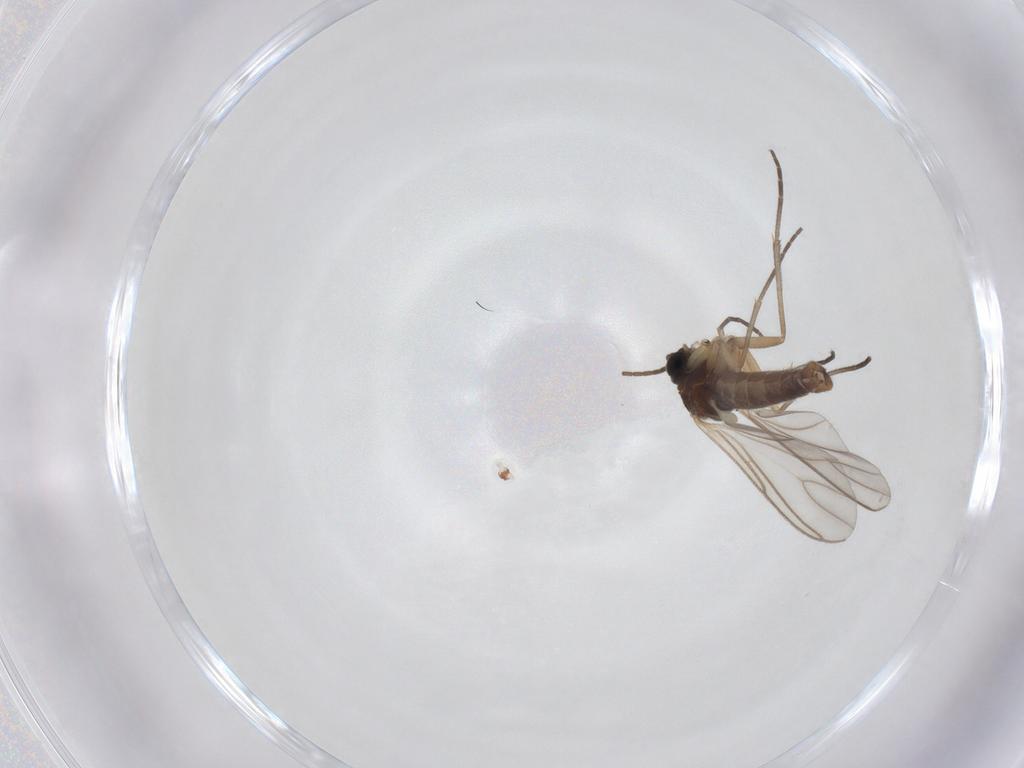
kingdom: Animalia
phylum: Arthropoda
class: Insecta
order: Diptera
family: Sciaridae
